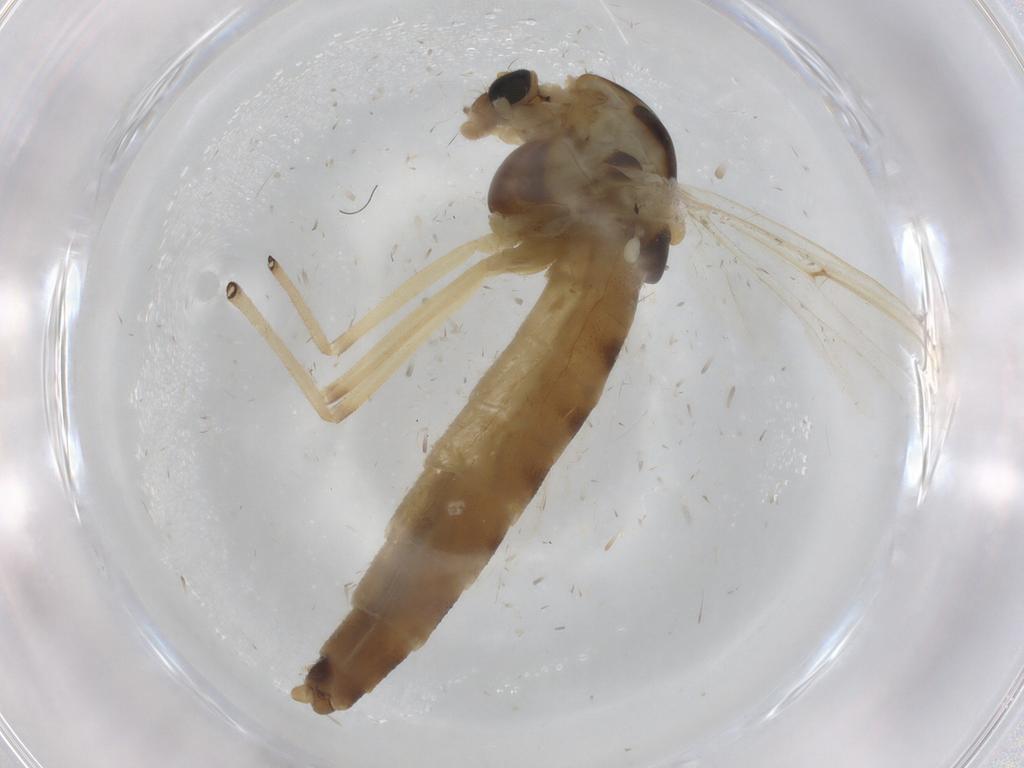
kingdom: Animalia
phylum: Arthropoda
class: Insecta
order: Diptera
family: Psychodidae
